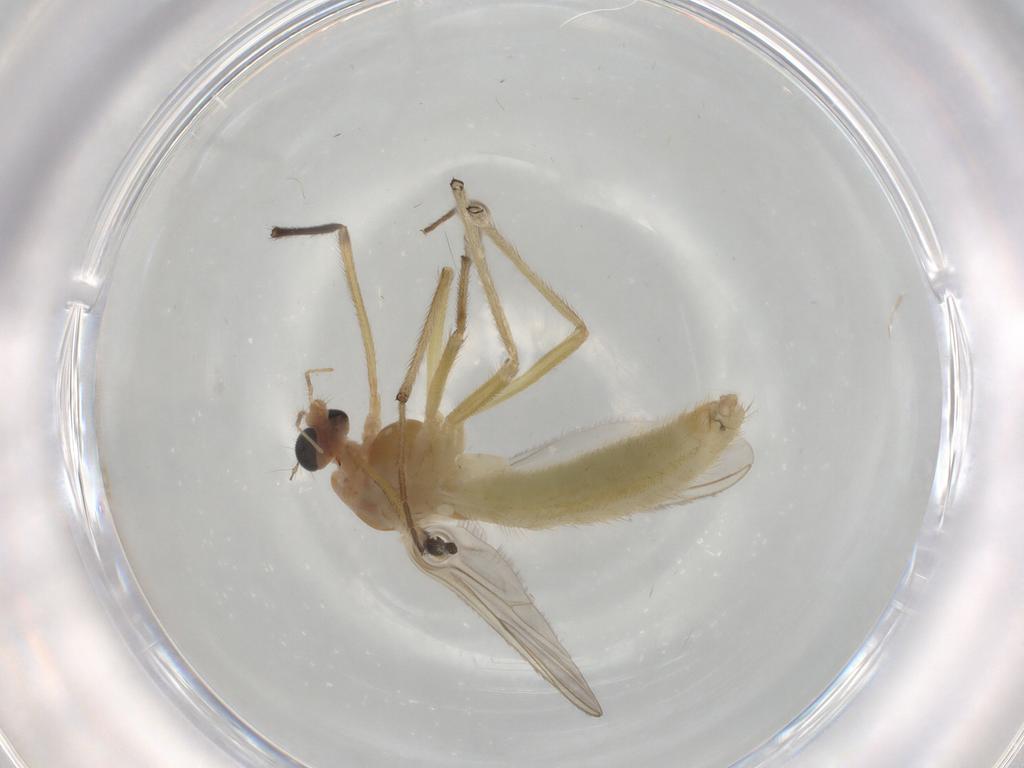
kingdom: Animalia
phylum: Arthropoda
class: Insecta
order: Diptera
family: Chironomidae
